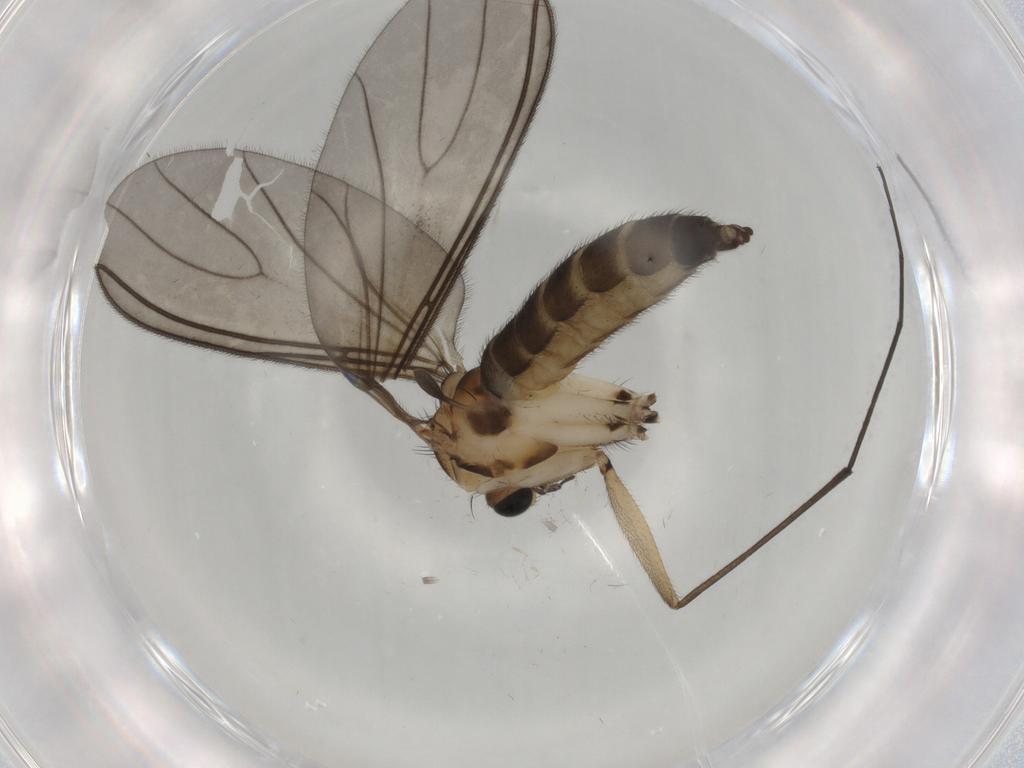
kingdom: Animalia
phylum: Arthropoda
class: Insecta
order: Diptera
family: Sciaridae
